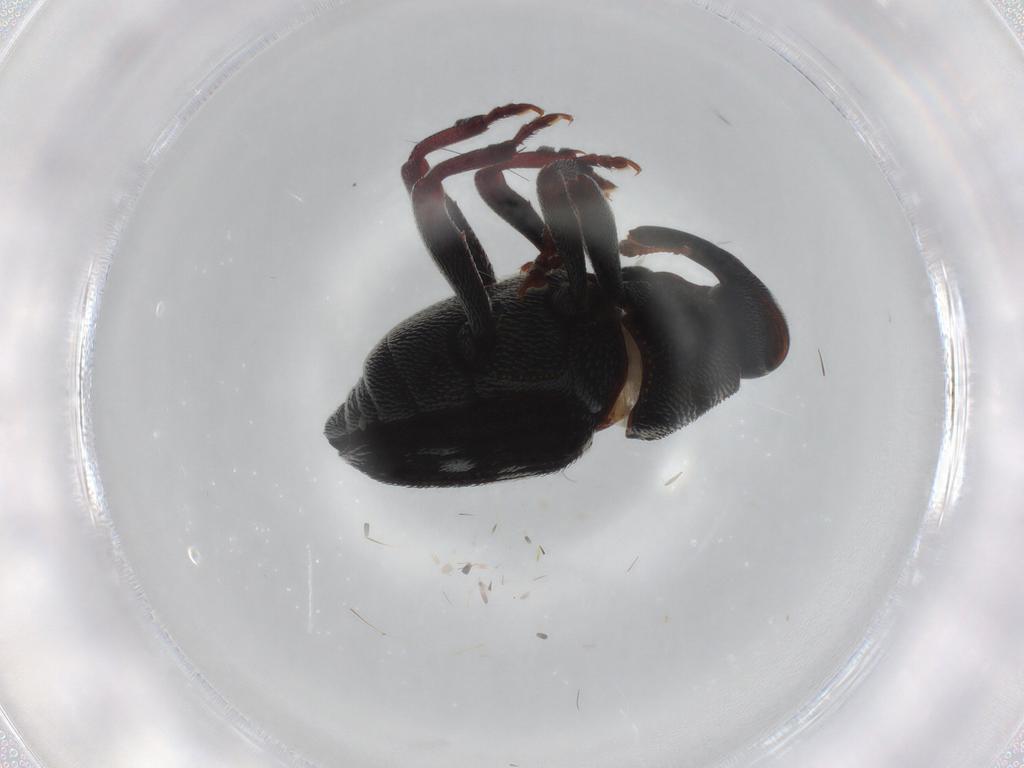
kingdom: Animalia
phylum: Arthropoda
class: Insecta
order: Coleoptera
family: Curculionidae
